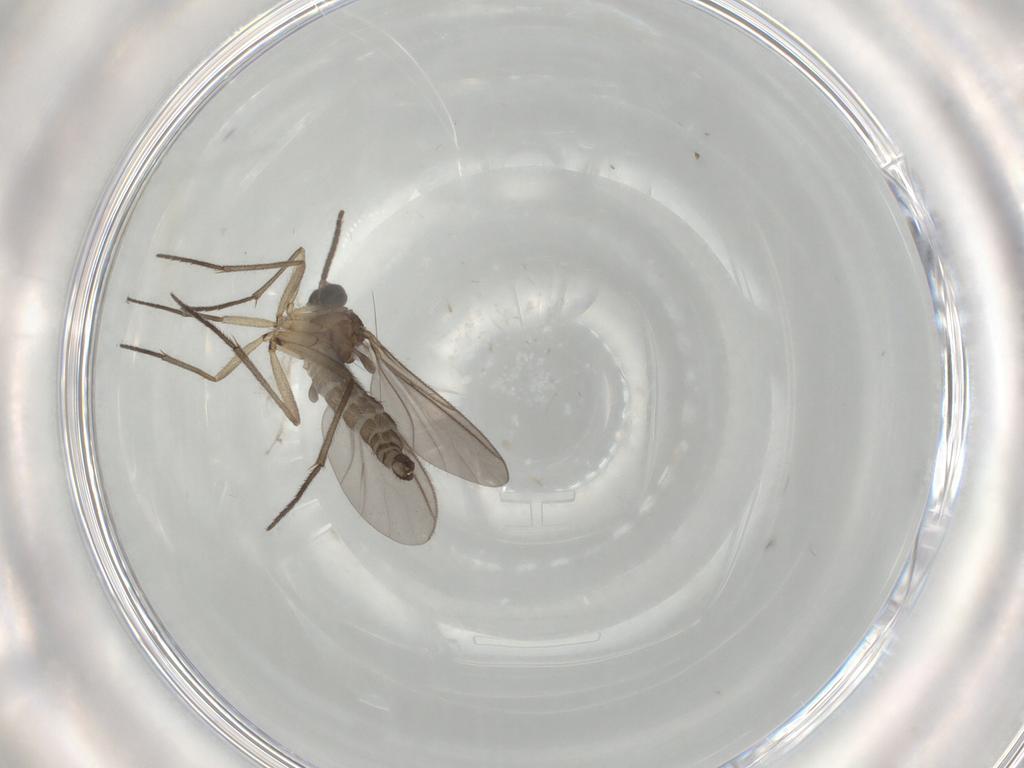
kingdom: Animalia
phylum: Arthropoda
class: Insecta
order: Diptera
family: Sciaridae
